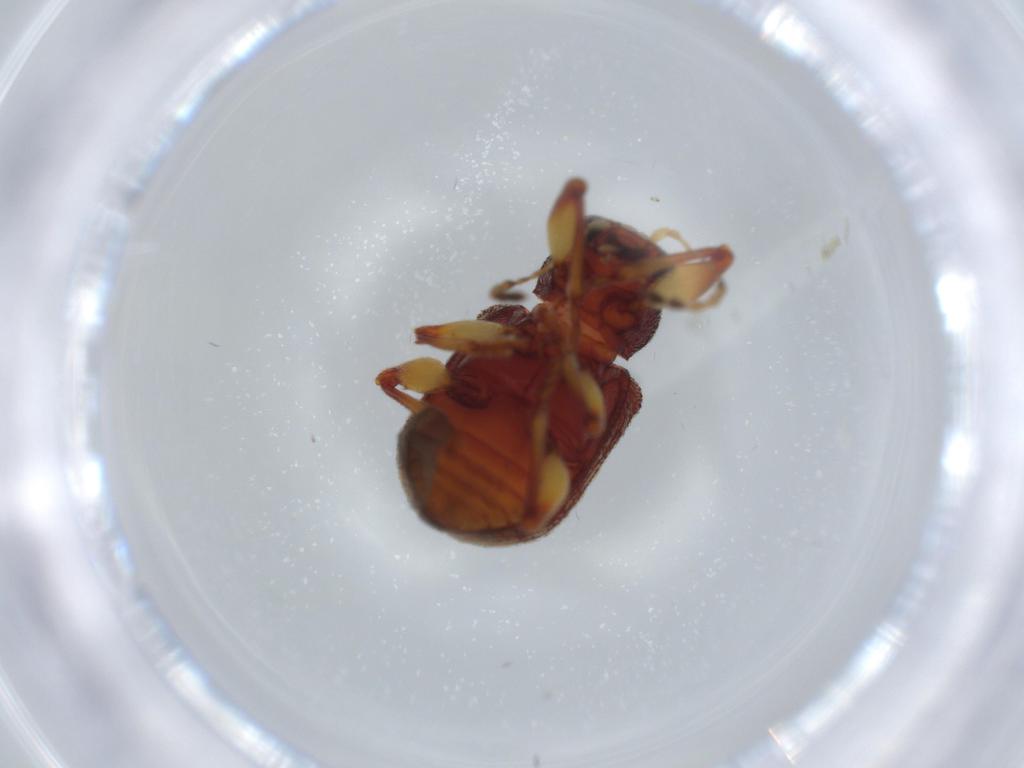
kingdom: Animalia
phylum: Arthropoda
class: Insecta
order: Coleoptera
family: Chrysomelidae
